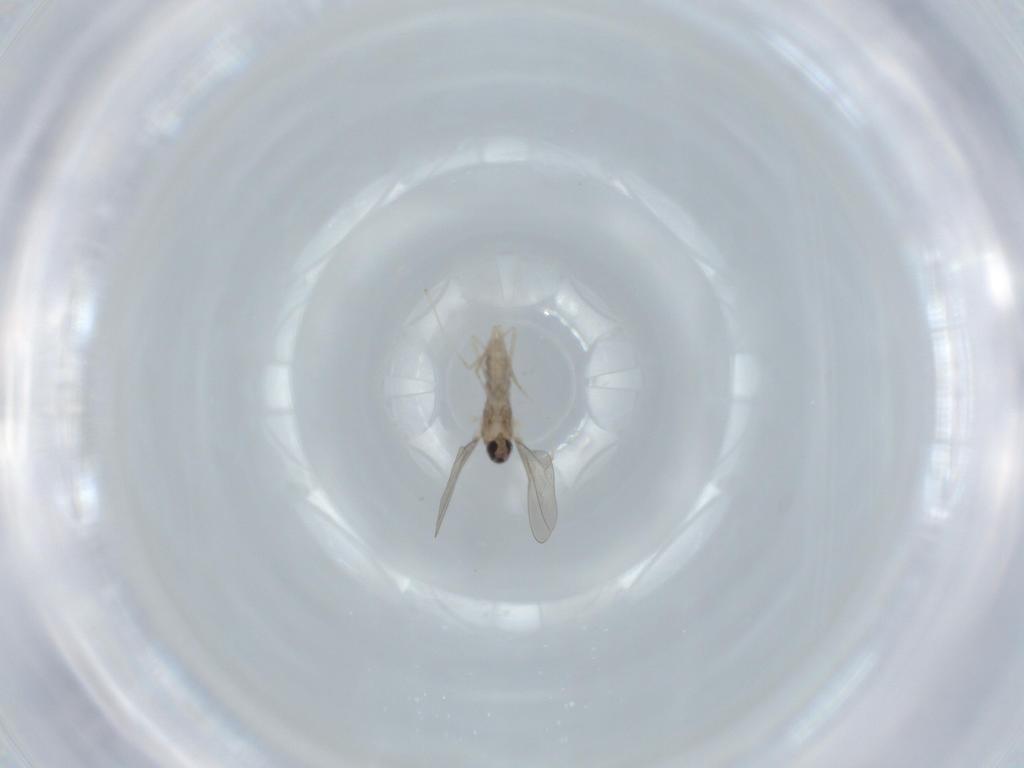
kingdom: Animalia
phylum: Arthropoda
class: Insecta
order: Diptera
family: Cecidomyiidae
